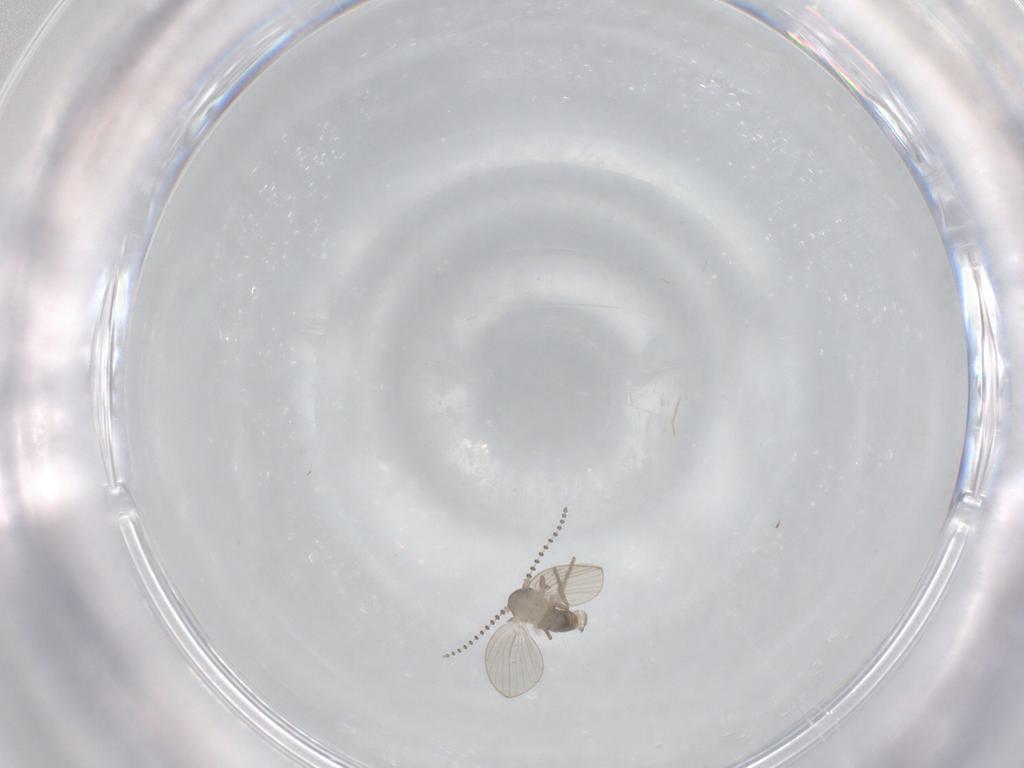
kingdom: Animalia
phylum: Arthropoda
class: Insecta
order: Diptera
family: Psychodidae
